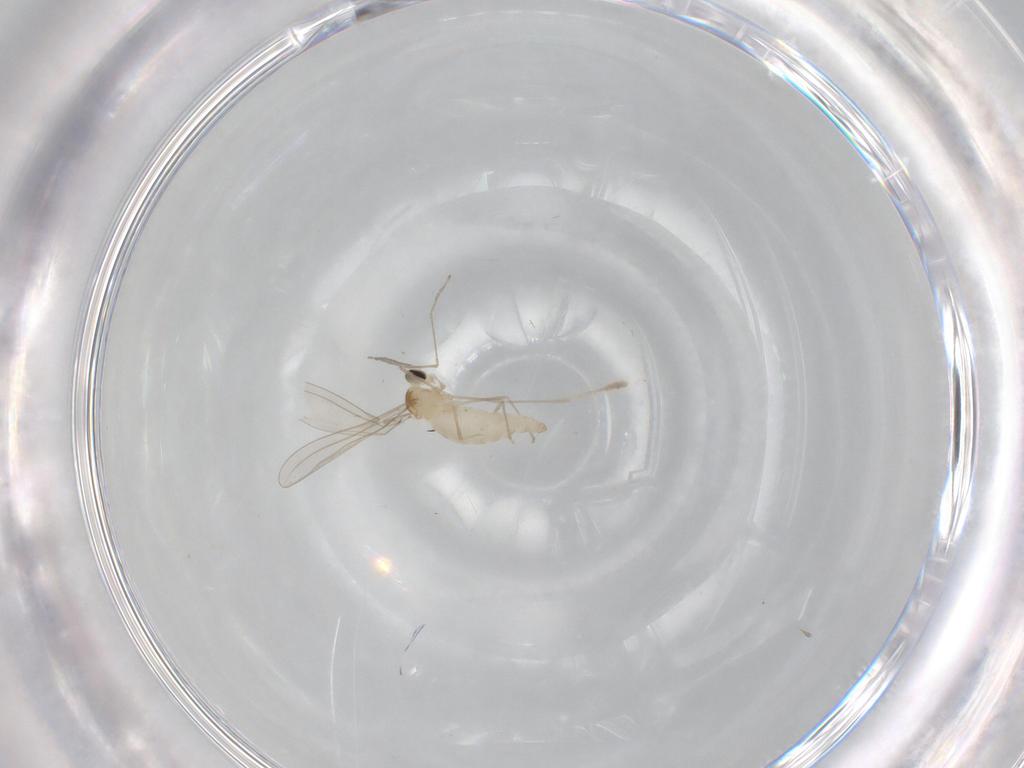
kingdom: Animalia
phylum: Arthropoda
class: Insecta
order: Diptera
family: Cecidomyiidae
